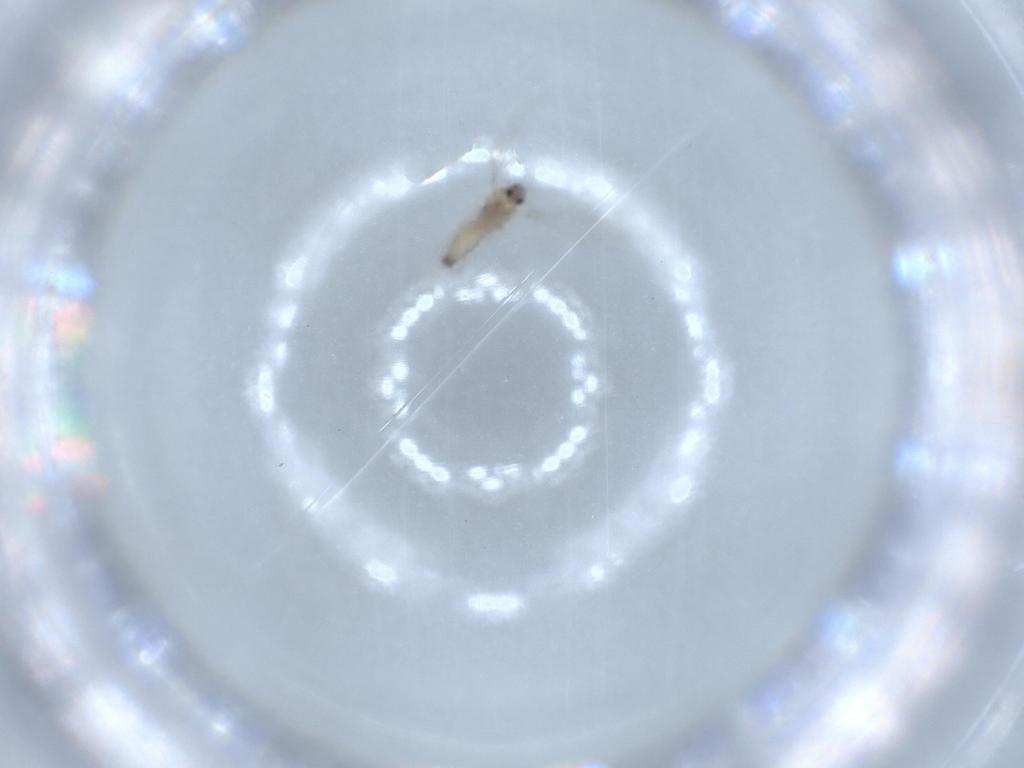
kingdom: Animalia
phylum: Arthropoda
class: Insecta
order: Diptera
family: Cecidomyiidae
